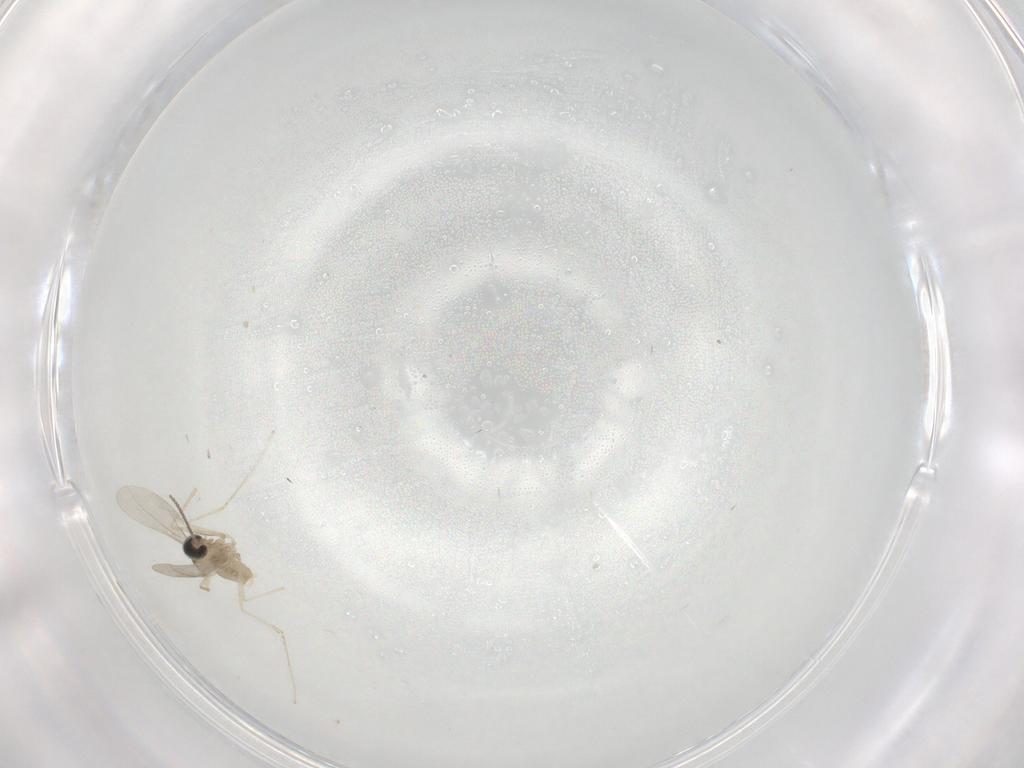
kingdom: Animalia
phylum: Arthropoda
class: Insecta
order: Diptera
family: Cecidomyiidae
